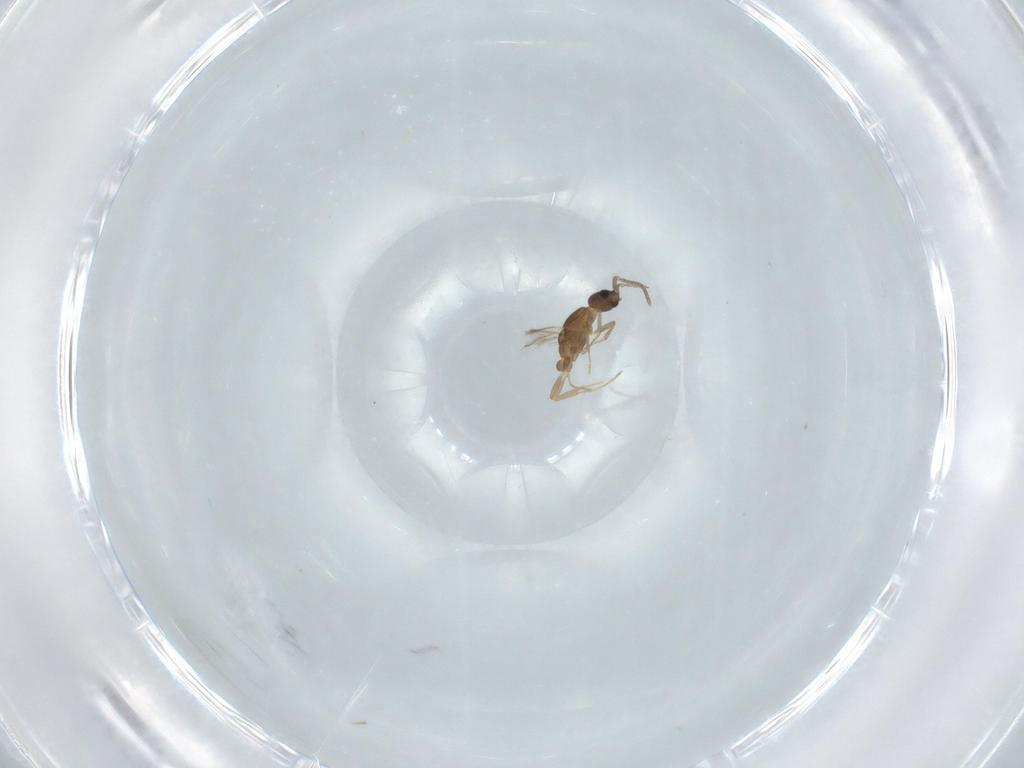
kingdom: Animalia
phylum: Arthropoda
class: Insecta
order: Hymenoptera
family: Formicidae
